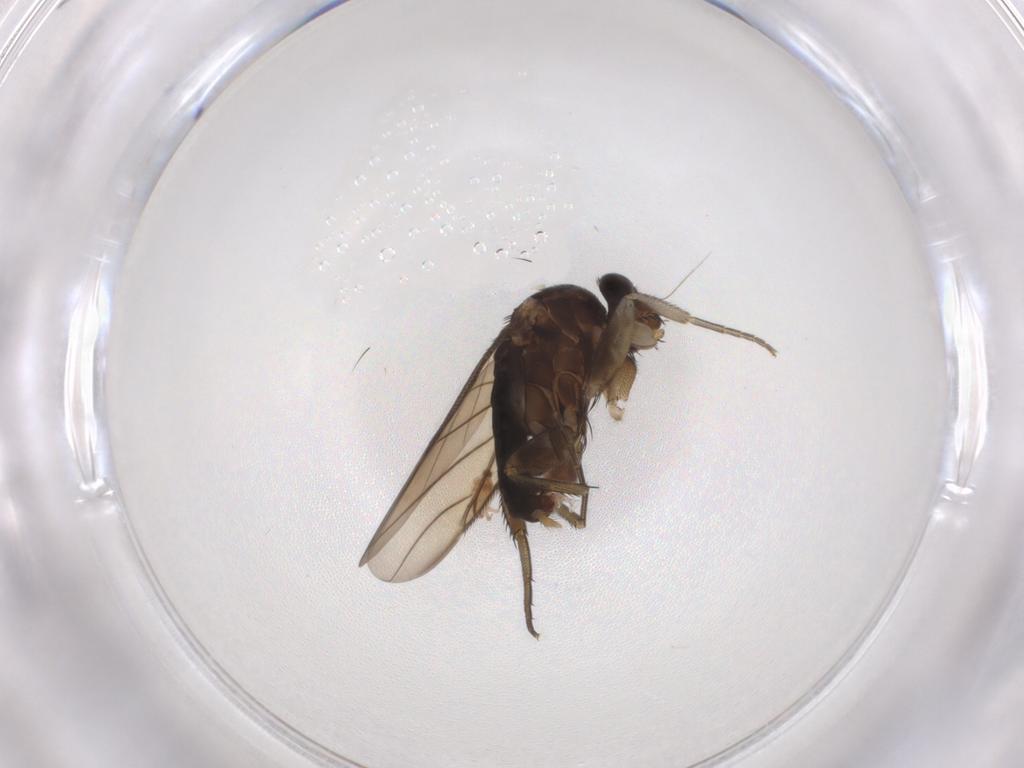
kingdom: Animalia
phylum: Arthropoda
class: Insecta
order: Diptera
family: Phoridae
